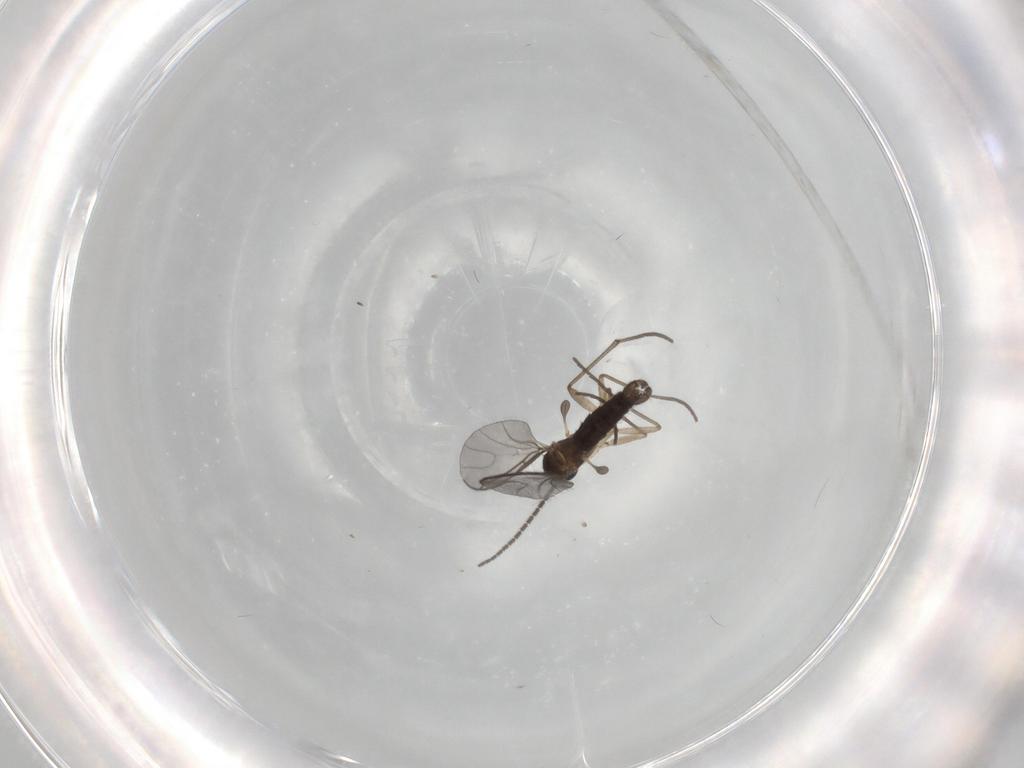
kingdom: Animalia
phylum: Arthropoda
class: Insecta
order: Diptera
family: Sciaridae
